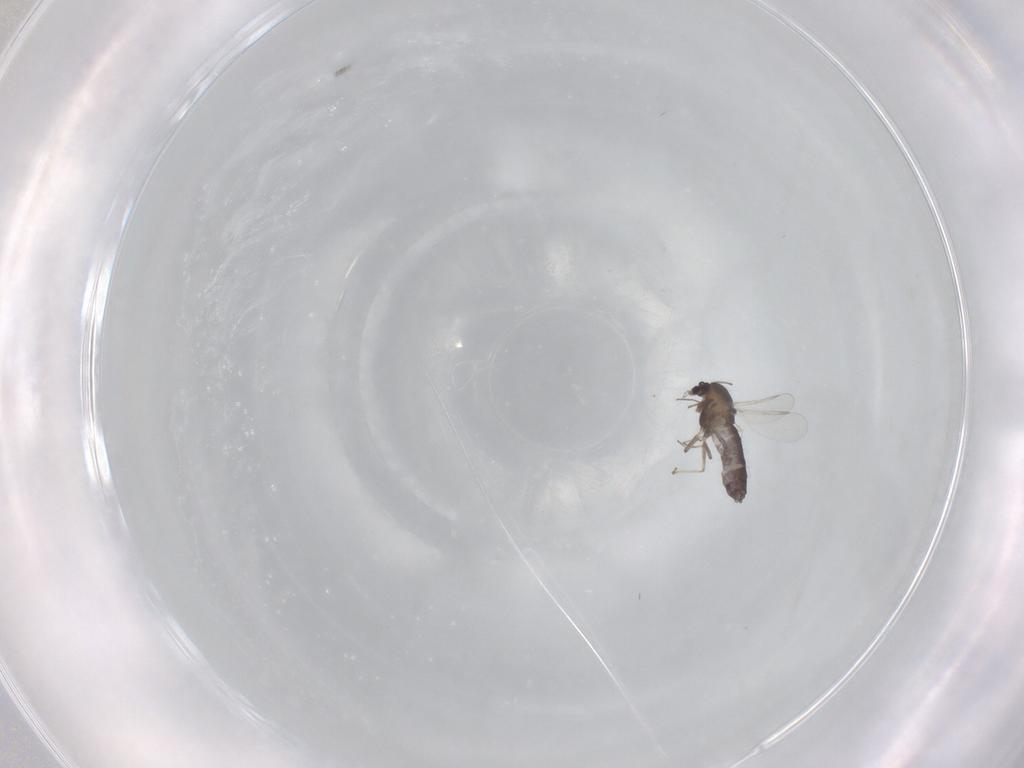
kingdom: Animalia
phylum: Arthropoda
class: Insecta
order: Diptera
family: Chironomidae
